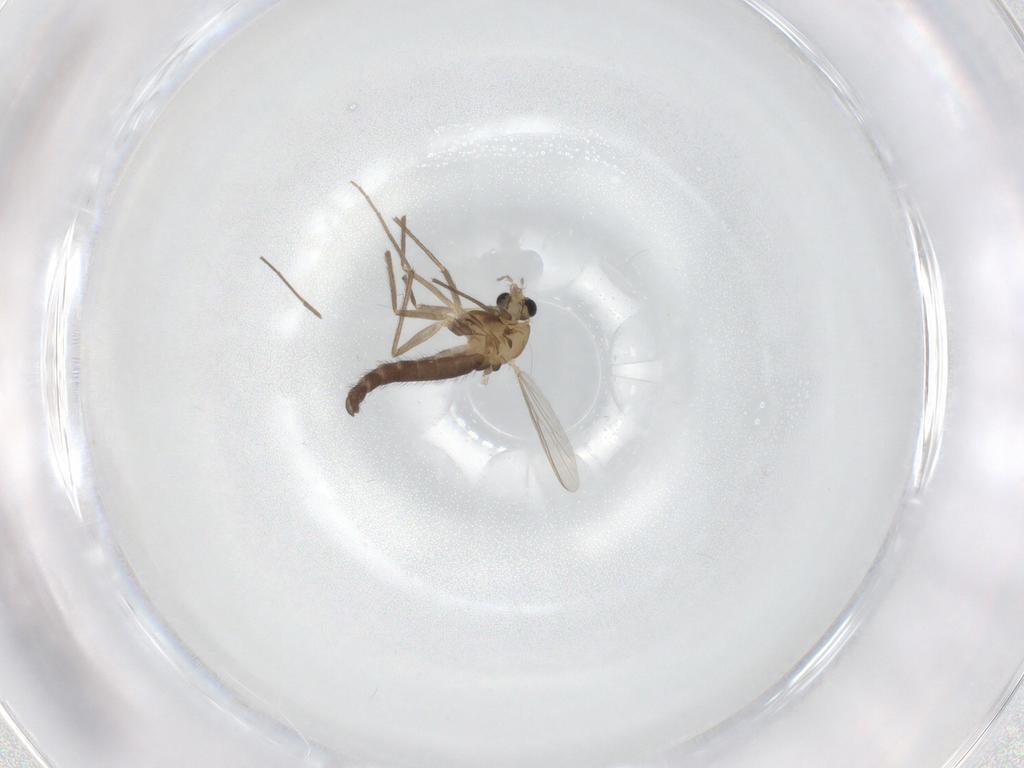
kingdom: Animalia
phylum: Arthropoda
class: Insecta
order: Diptera
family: Chironomidae
